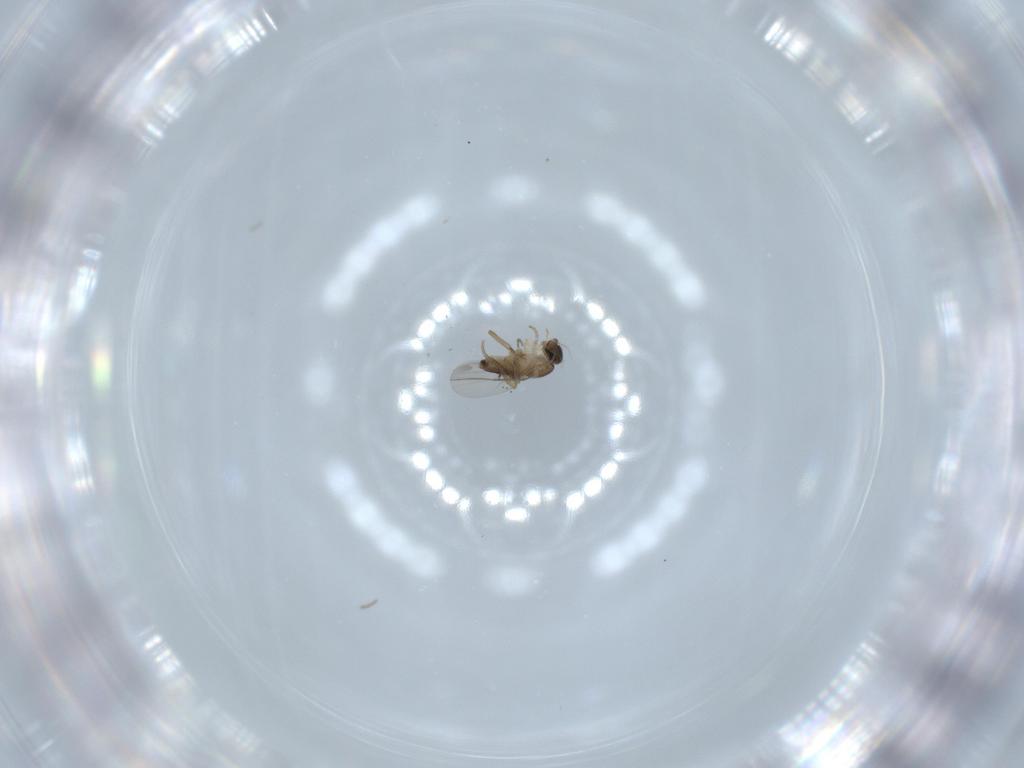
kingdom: Animalia
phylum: Arthropoda
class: Insecta
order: Diptera
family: Phoridae
